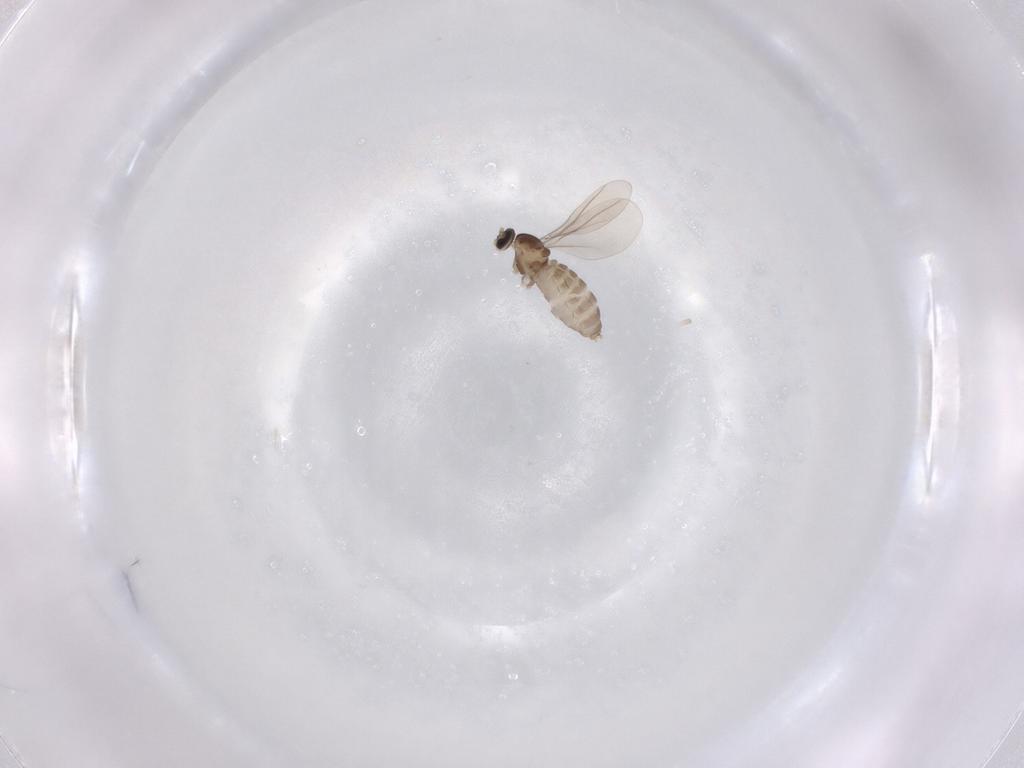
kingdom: Animalia
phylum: Arthropoda
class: Insecta
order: Diptera
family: Cecidomyiidae
